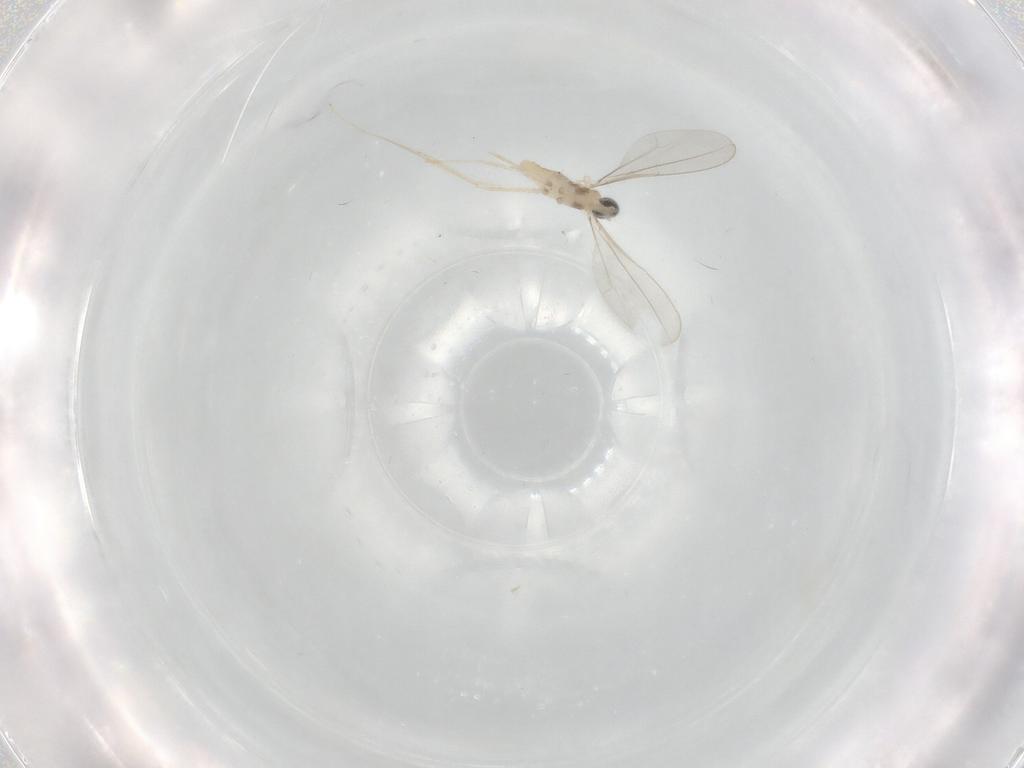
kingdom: Animalia
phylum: Arthropoda
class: Insecta
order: Diptera
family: Cecidomyiidae
